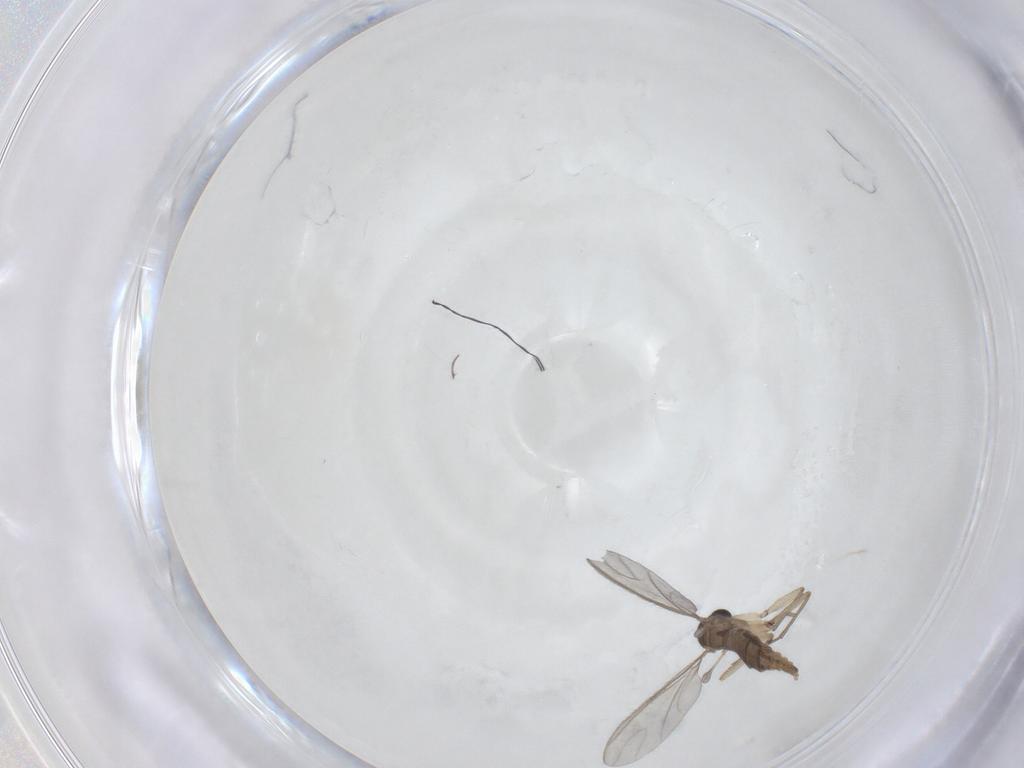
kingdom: Animalia
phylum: Arthropoda
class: Insecta
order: Diptera
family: Sciaridae
